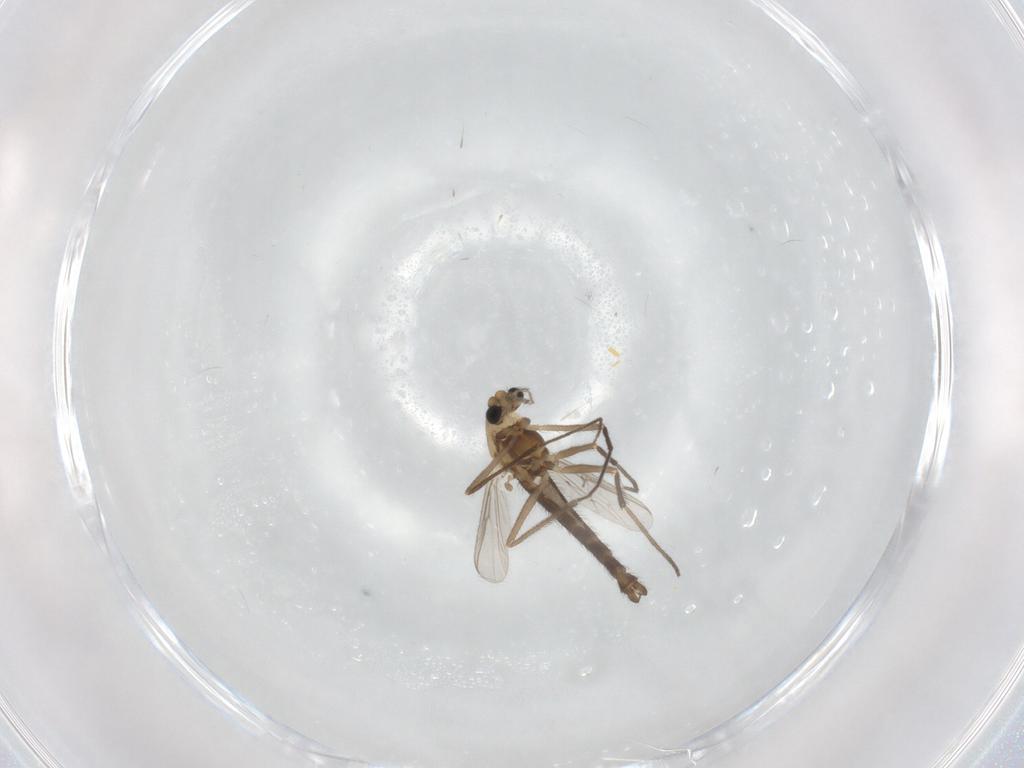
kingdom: Animalia
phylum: Arthropoda
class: Insecta
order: Diptera
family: Chironomidae
